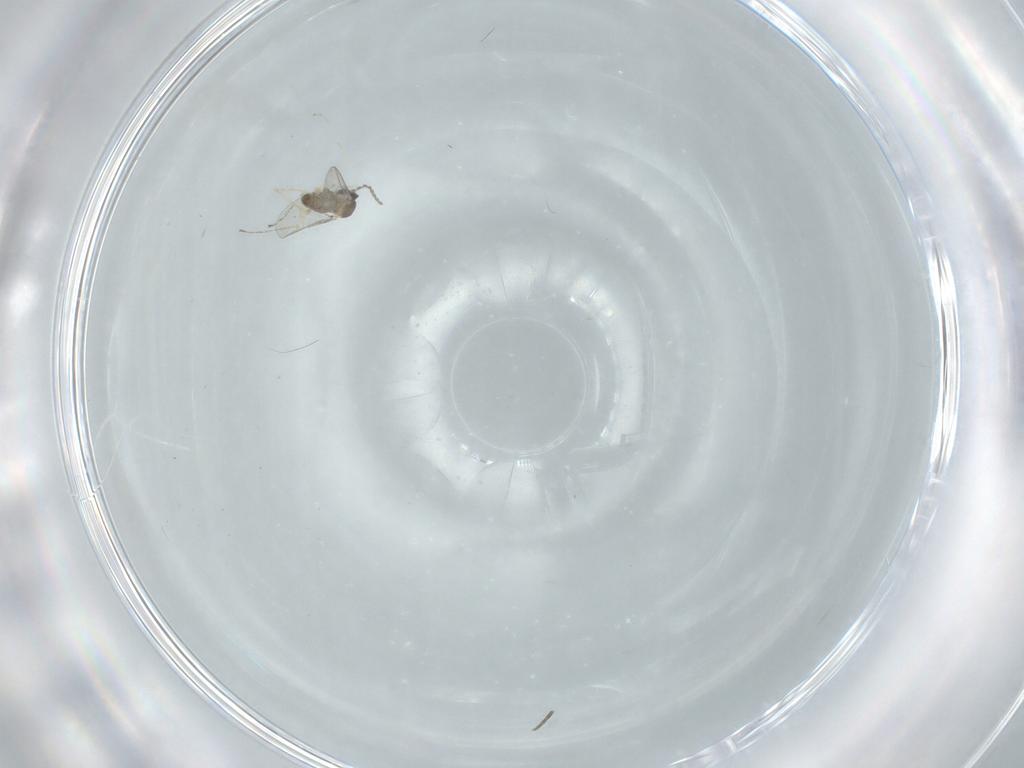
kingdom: Animalia
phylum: Arthropoda
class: Insecta
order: Diptera
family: Cecidomyiidae
